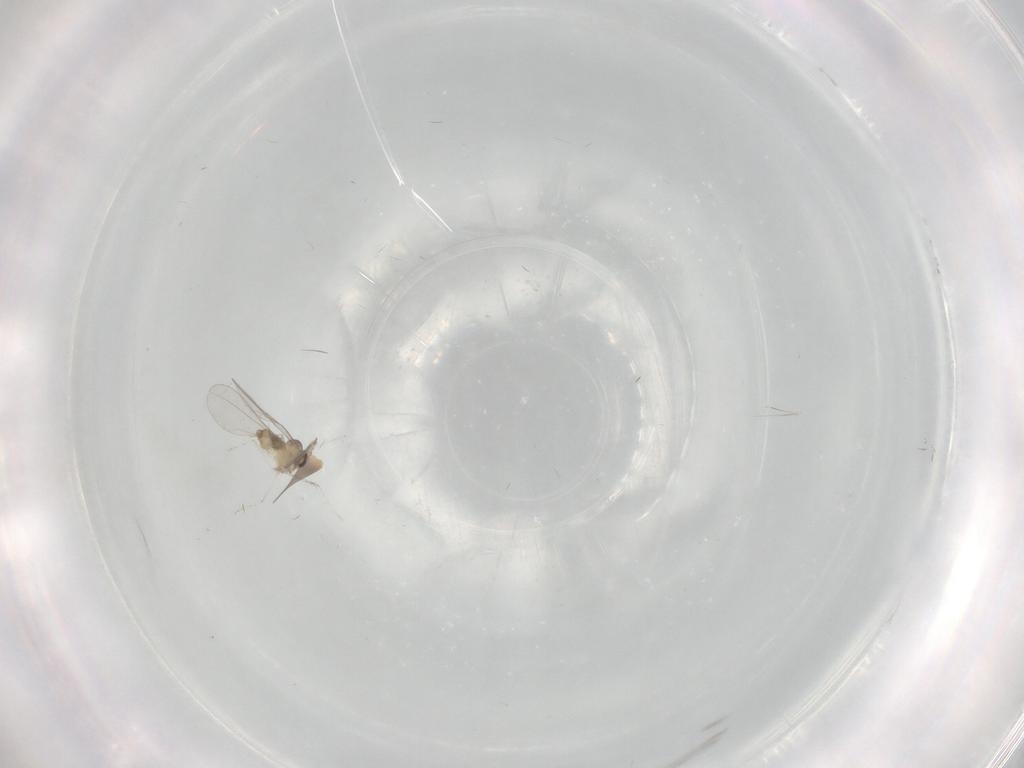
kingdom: Animalia
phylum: Arthropoda
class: Insecta
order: Diptera
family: Cecidomyiidae
